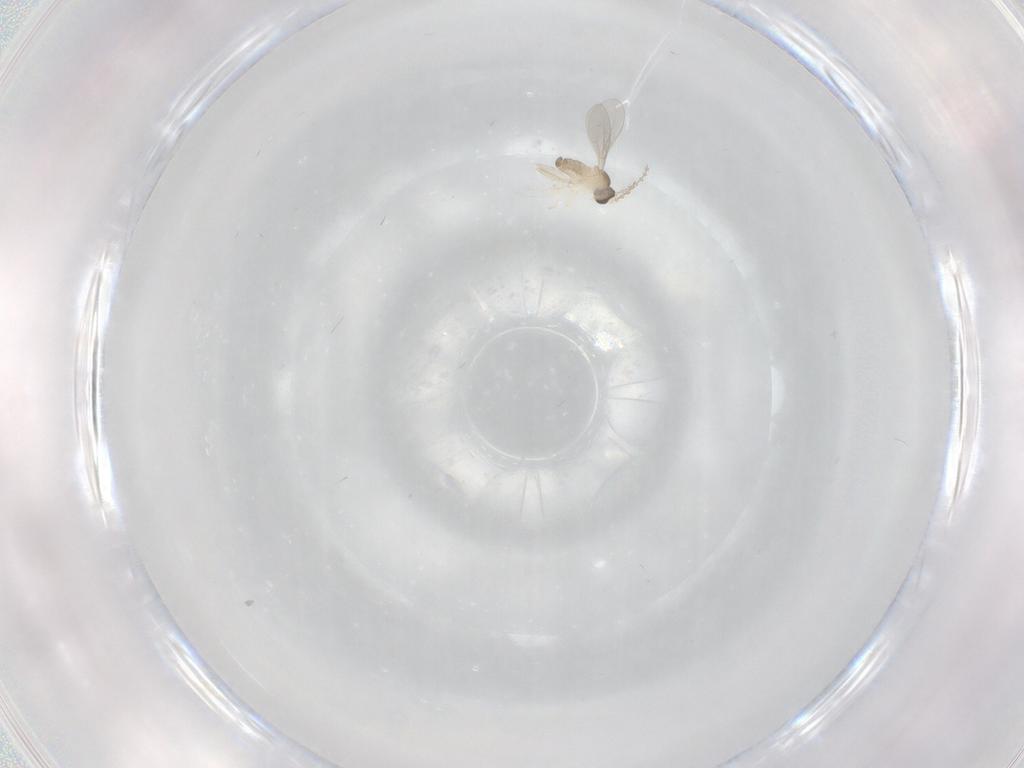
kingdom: Animalia
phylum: Arthropoda
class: Insecta
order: Diptera
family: Cecidomyiidae
